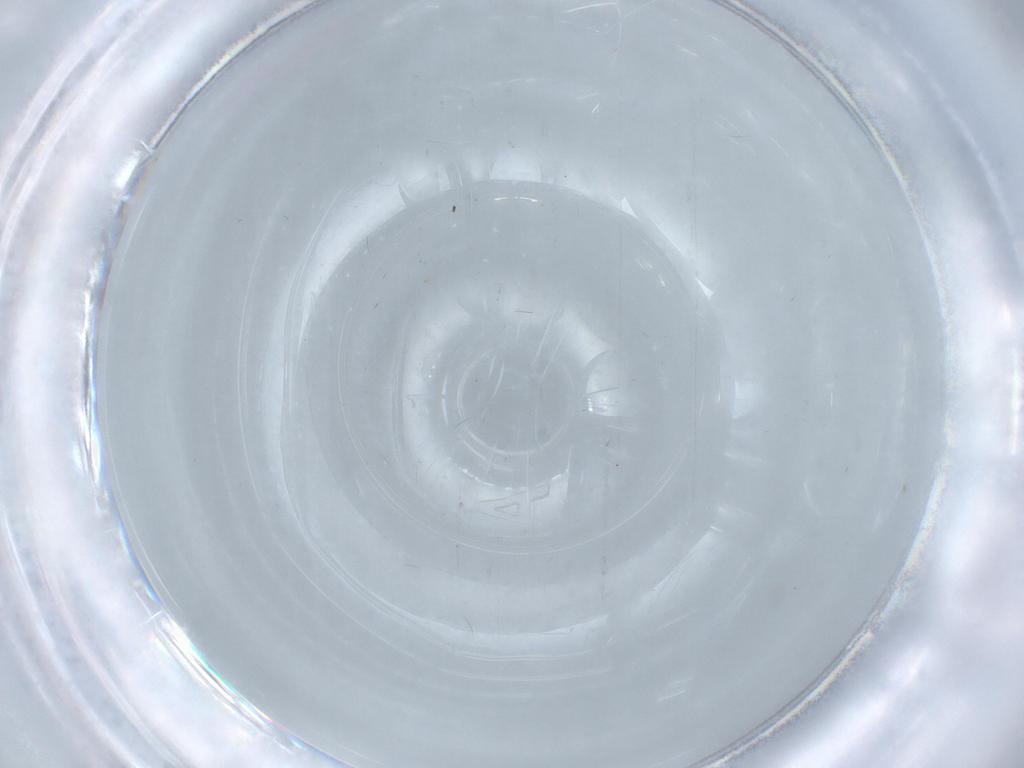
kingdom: Animalia
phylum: Arthropoda
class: Insecta
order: Diptera
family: Cecidomyiidae
